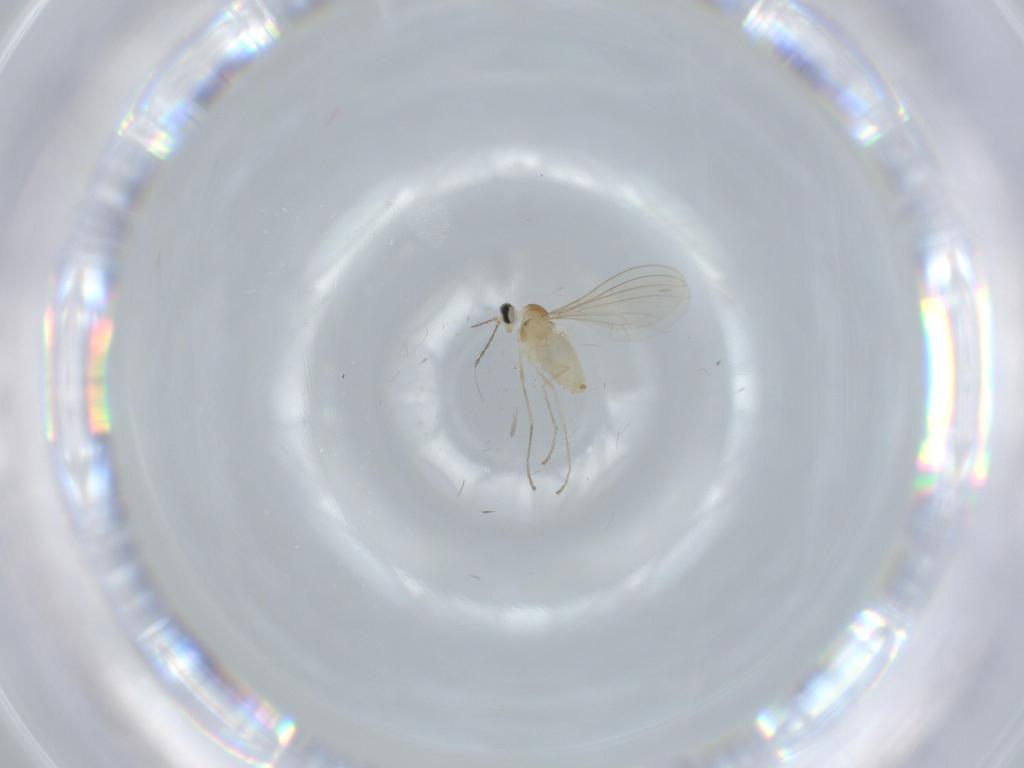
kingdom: Animalia
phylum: Arthropoda
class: Insecta
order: Diptera
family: Cecidomyiidae
